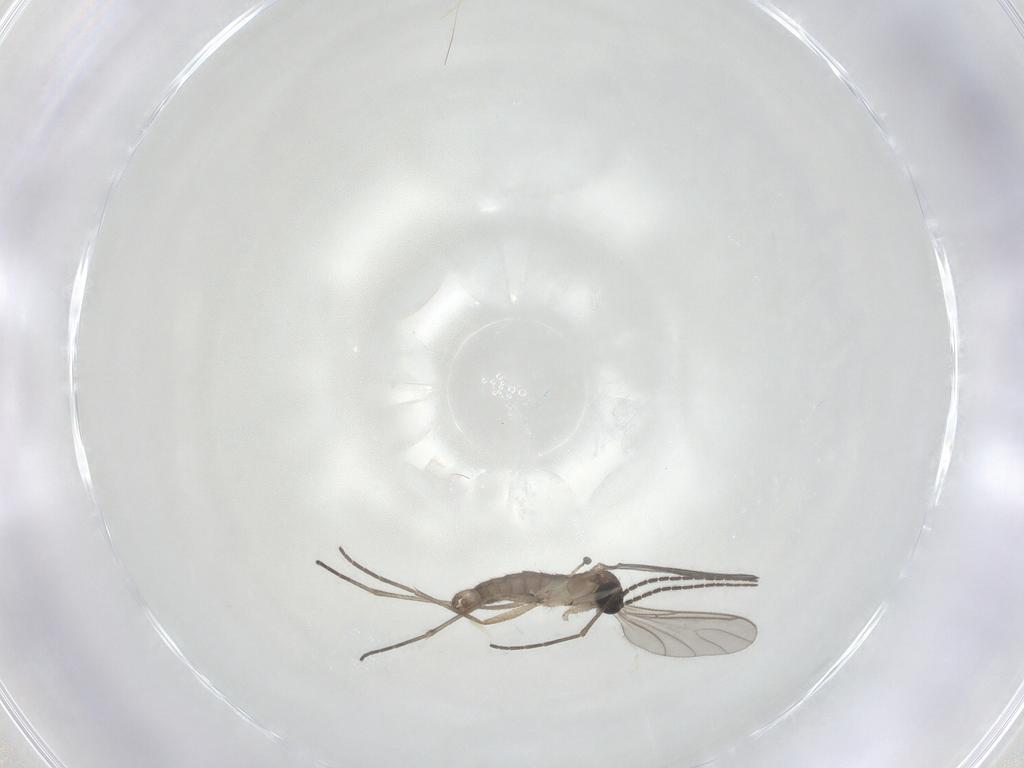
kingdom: Animalia
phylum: Arthropoda
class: Insecta
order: Diptera
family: Sciaridae
